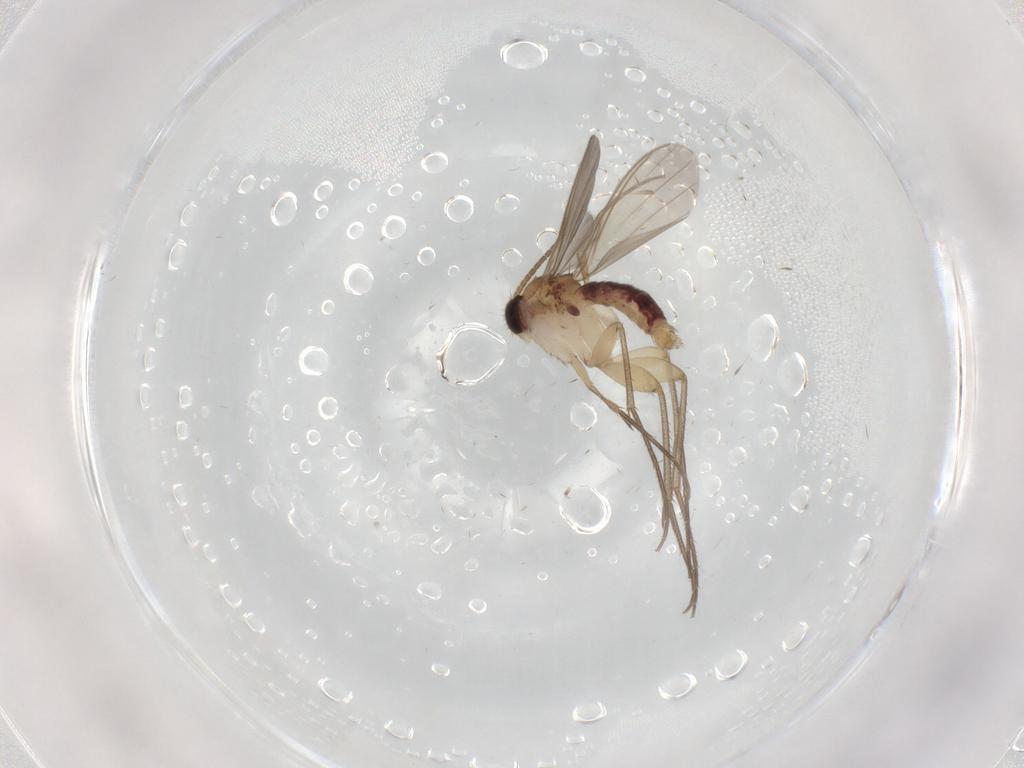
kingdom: Animalia
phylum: Arthropoda
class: Insecta
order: Diptera
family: Mycetophilidae
